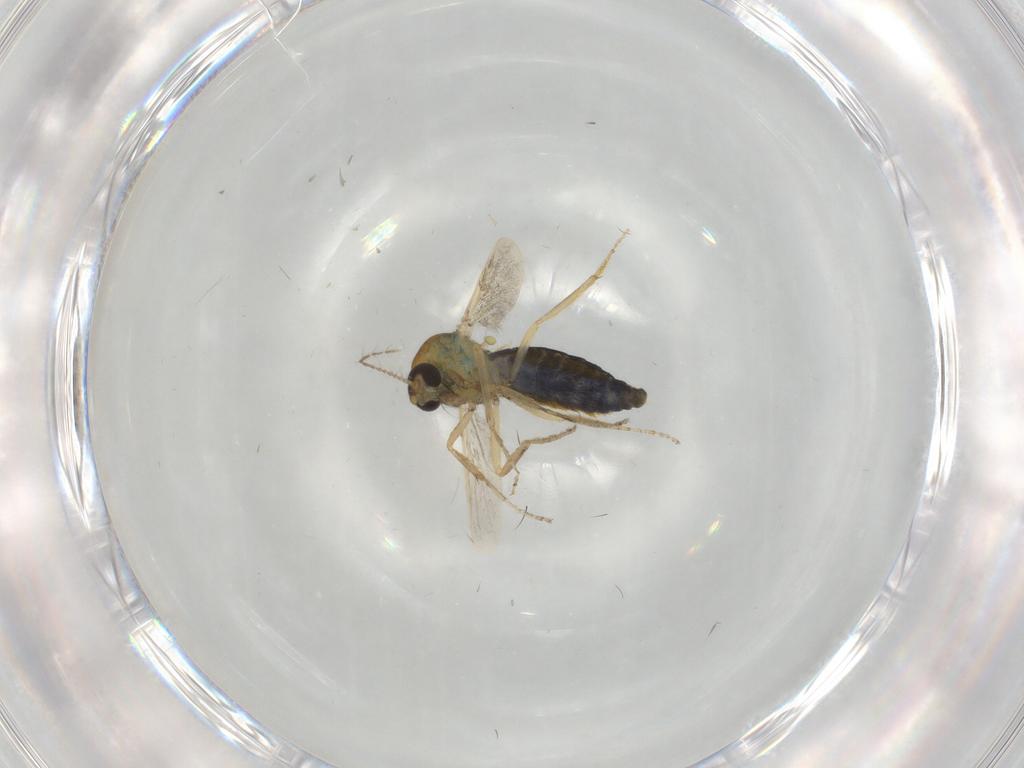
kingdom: Animalia
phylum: Arthropoda
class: Insecta
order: Diptera
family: Ceratopogonidae
